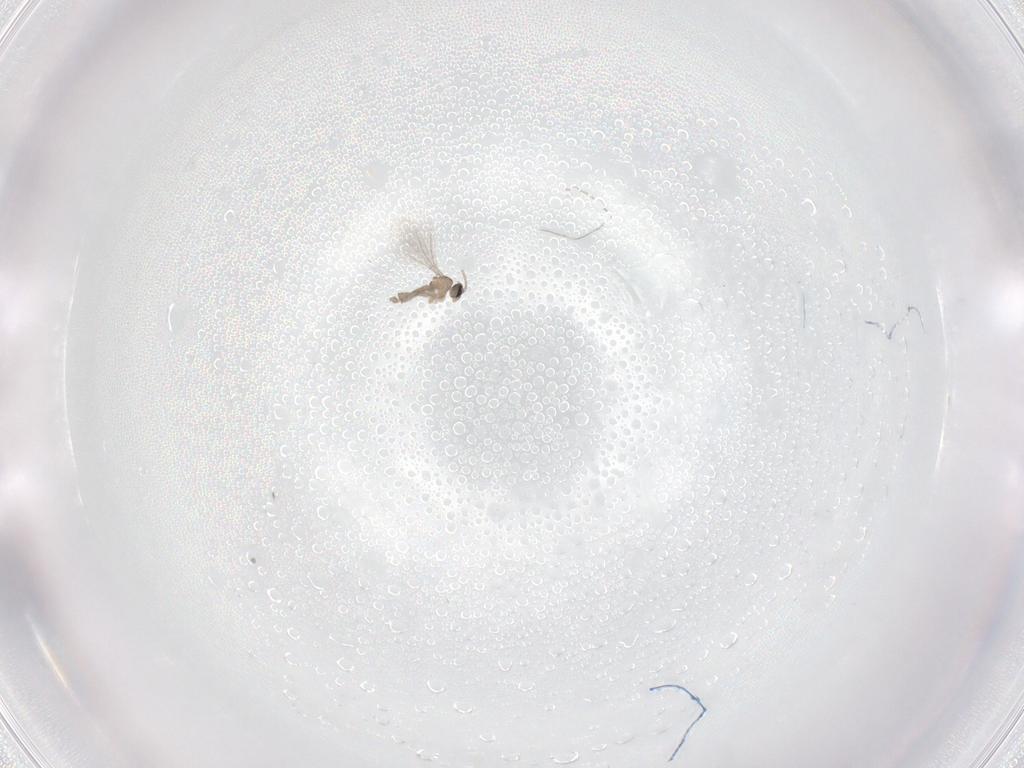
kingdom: Animalia
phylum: Arthropoda
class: Insecta
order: Diptera
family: Cecidomyiidae
